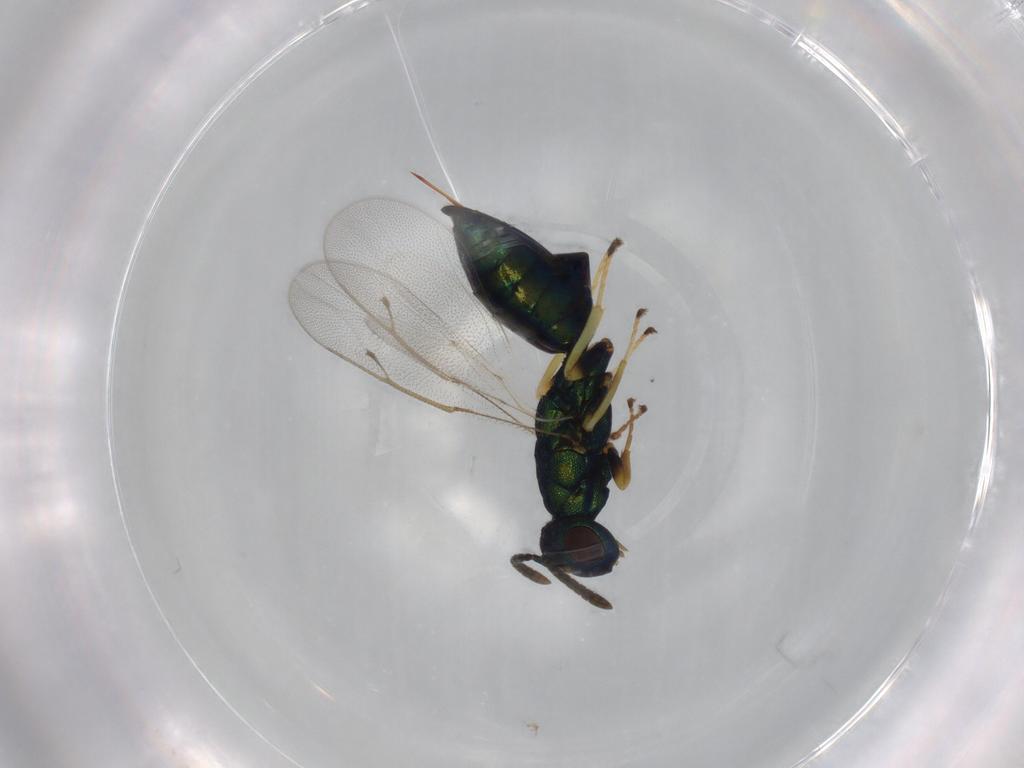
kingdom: Animalia
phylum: Arthropoda
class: Insecta
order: Hymenoptera
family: Pteromalidae
